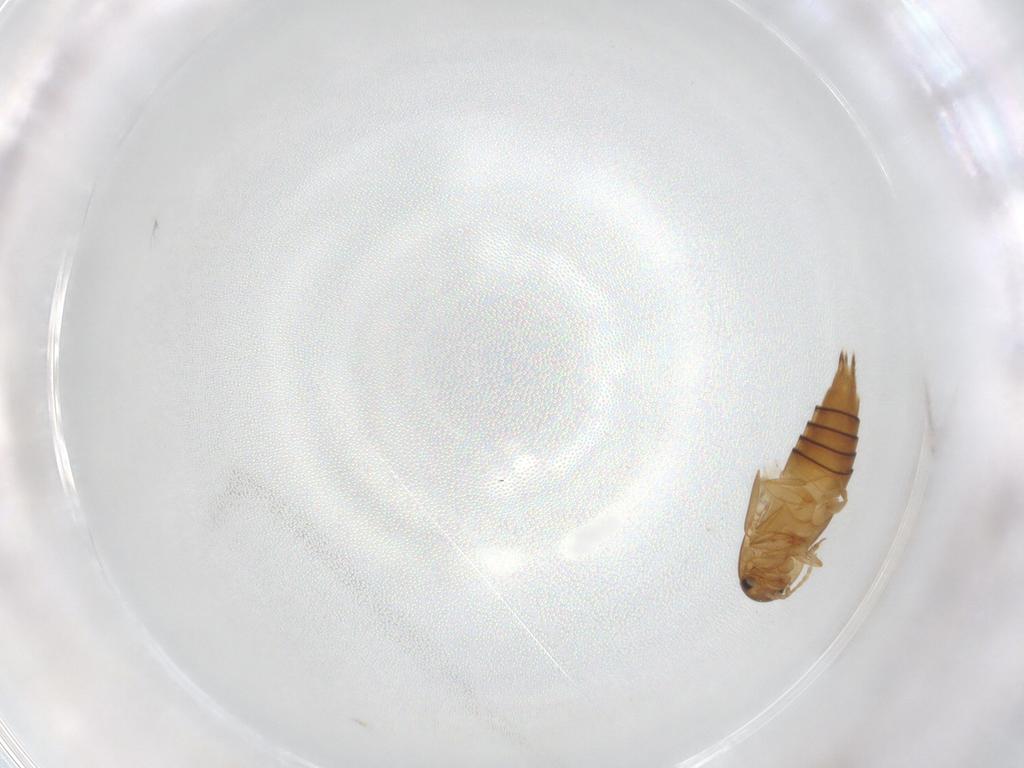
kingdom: Animalia
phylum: Arthropoda
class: Insecta
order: Coleoptera
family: Staphylinidae
